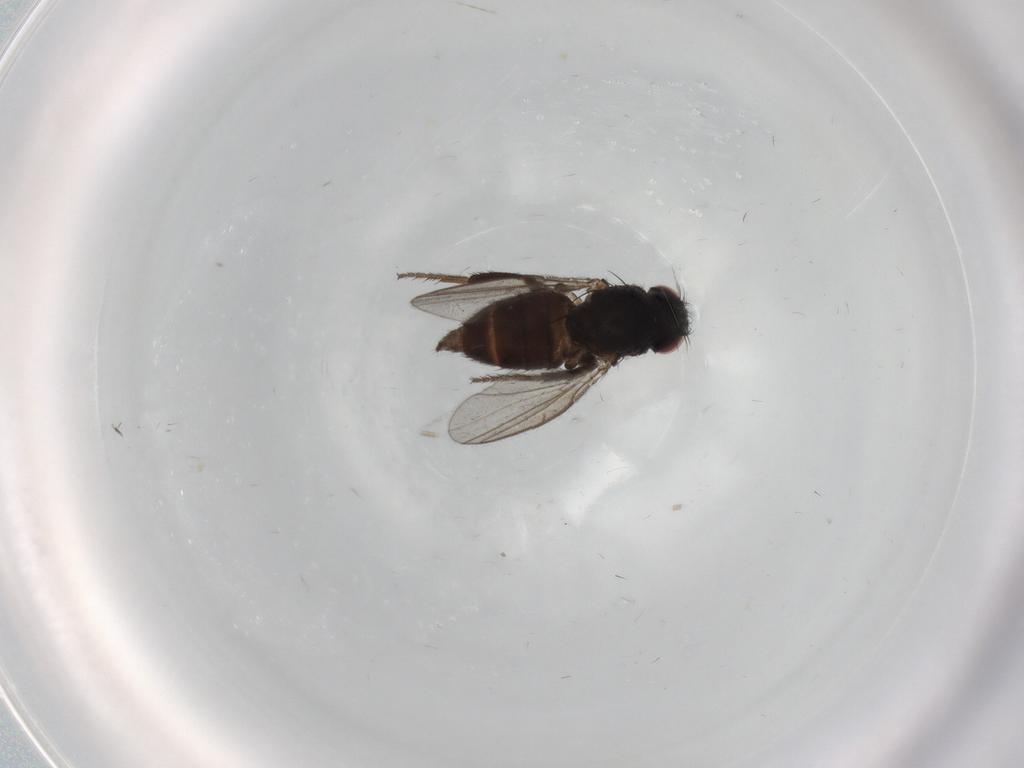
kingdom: Animalia
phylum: Arthropoda
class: Insecta
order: Diptera
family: Milichiidae
